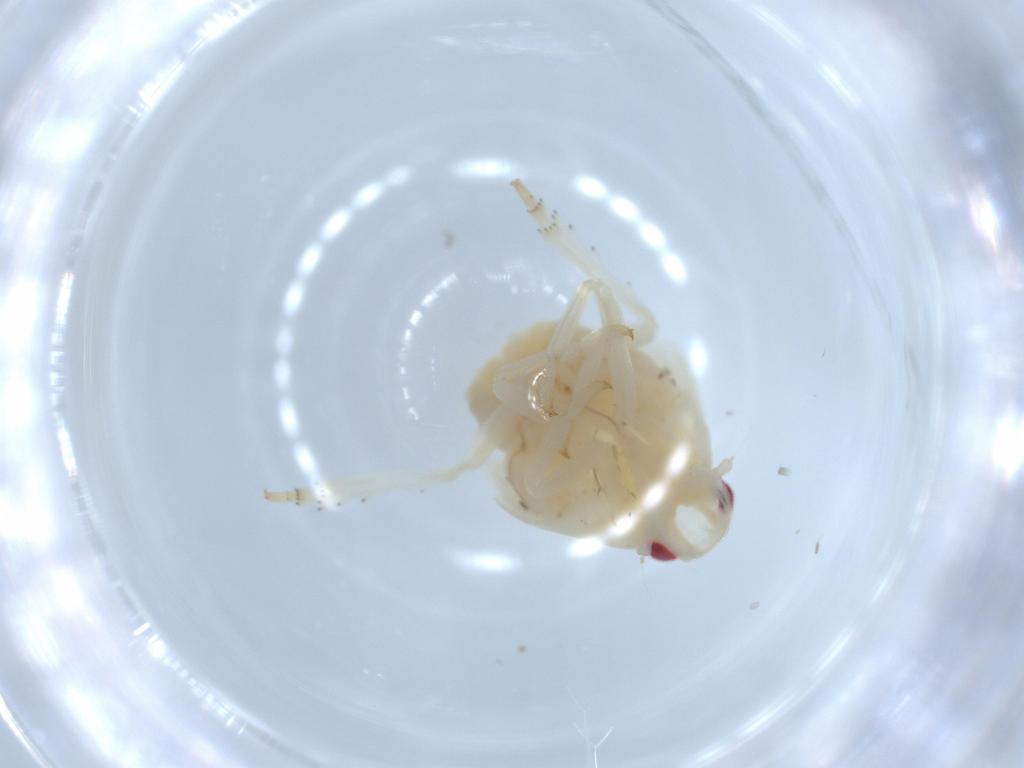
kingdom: Animalia
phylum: Arthropoda
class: Insecta
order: Hemiptera
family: Flatidae
